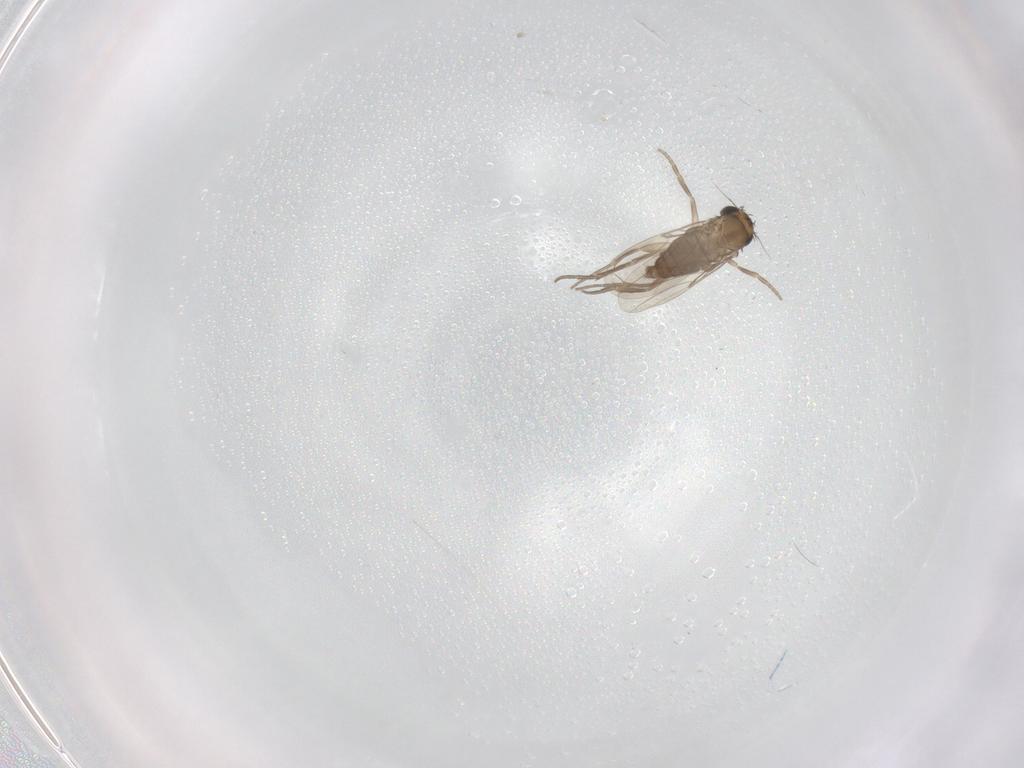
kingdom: Animalia
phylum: Arthropoda
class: Insecta
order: Diptera
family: Phoridae
